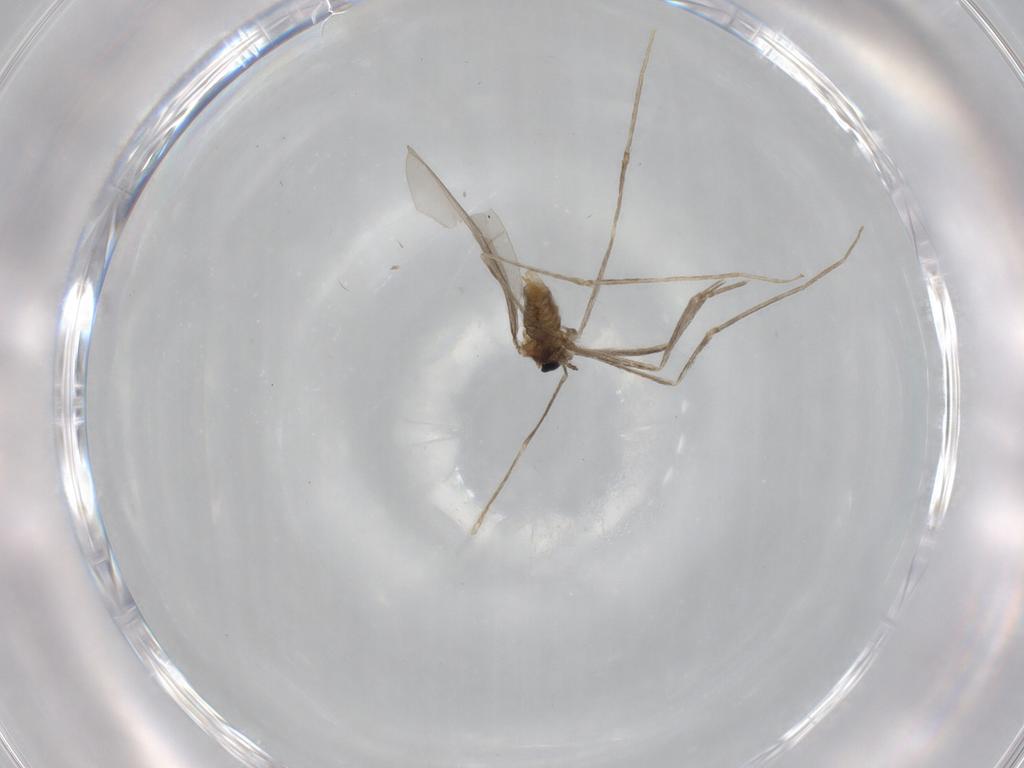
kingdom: Animalia
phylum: Arthropoda
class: Insecta
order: Diptera
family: Cecidomyiidae
